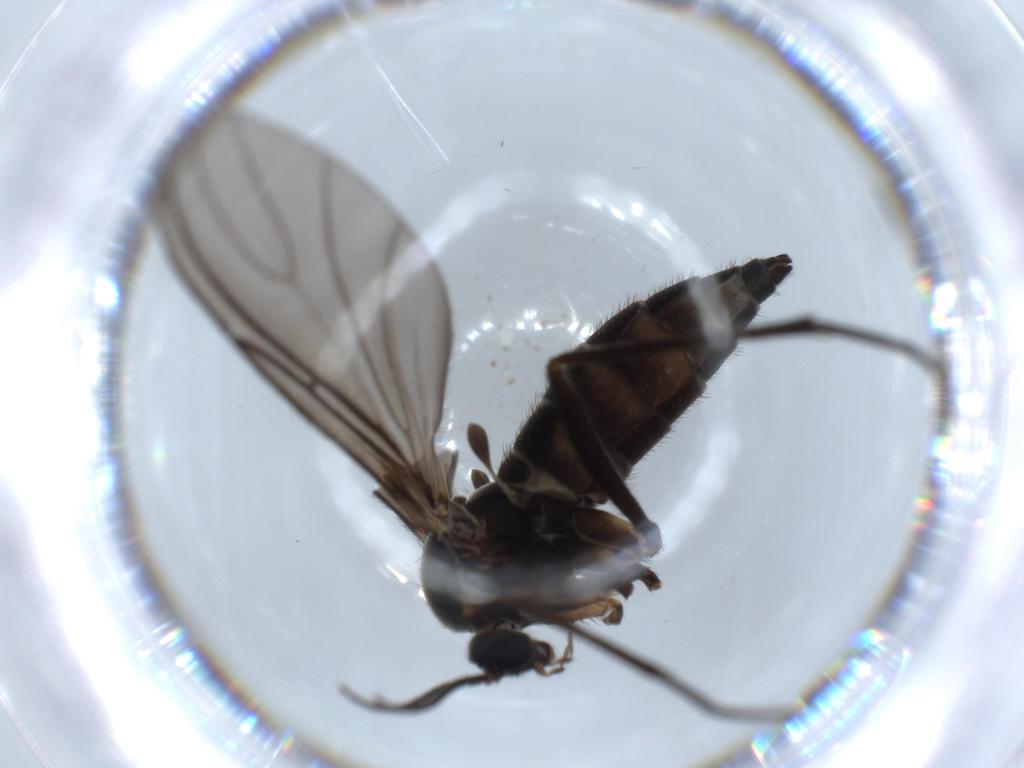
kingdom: Animalia
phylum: Arthropoda
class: Insecta
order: Diptera
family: Sciaridae
